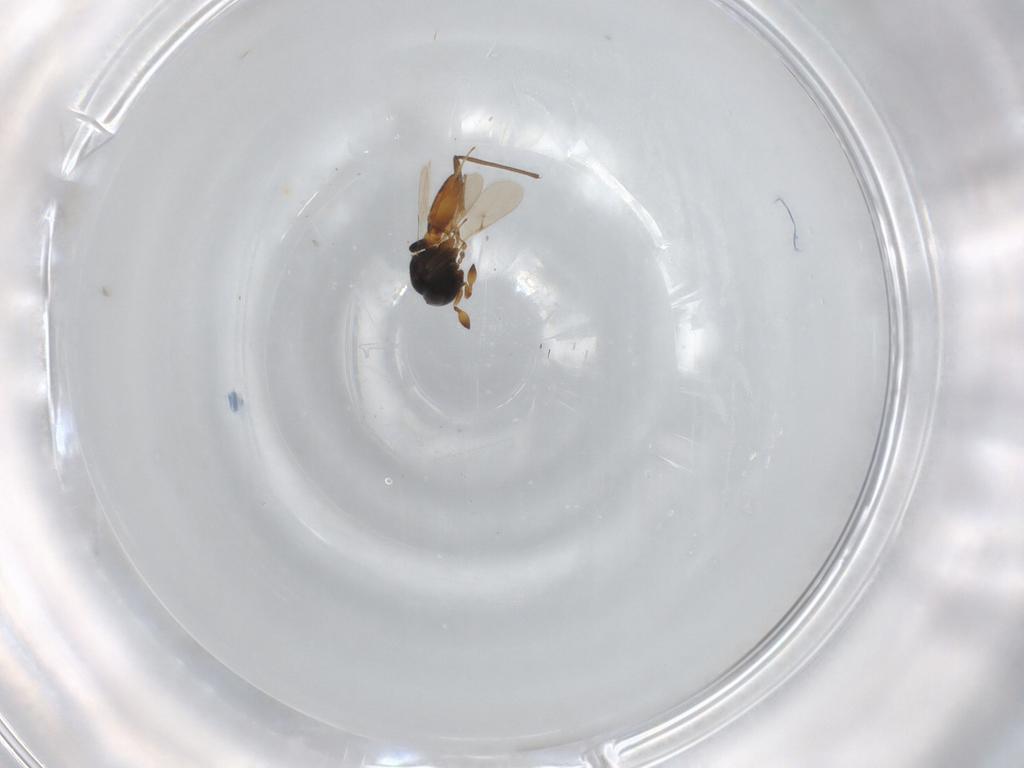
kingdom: Animalia
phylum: Arthropoda
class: Insecta
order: Hymenoptera
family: Scelionidae
